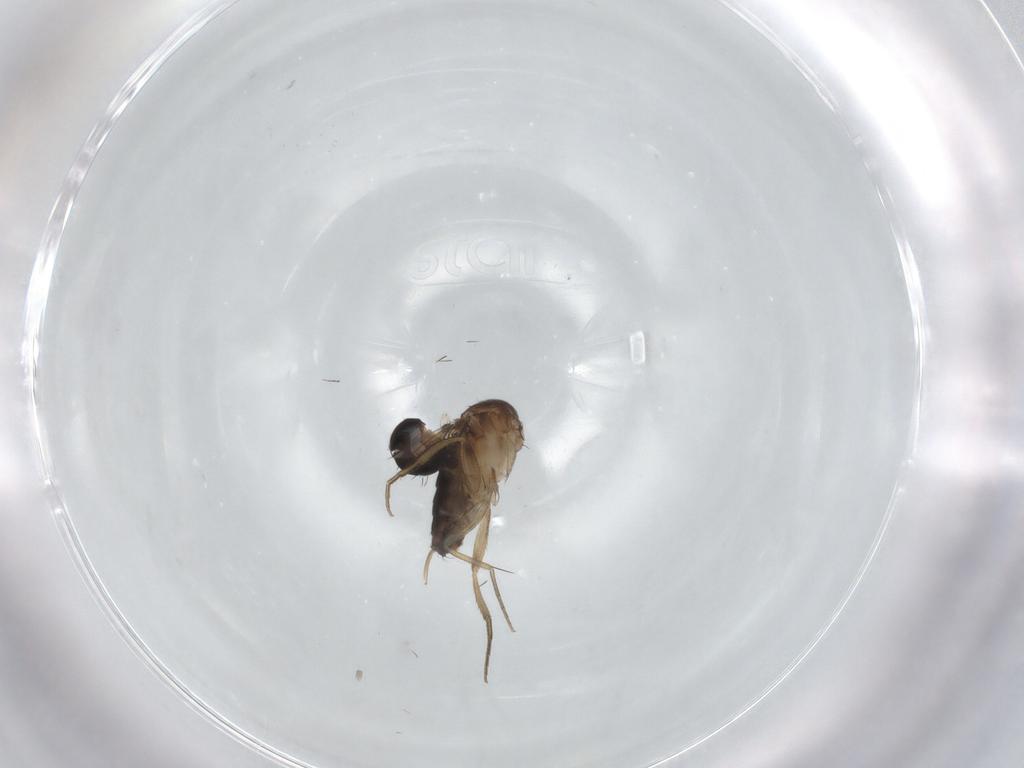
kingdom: Animalia
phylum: Arthropoda
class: Insecta
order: Diptera
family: Phoridae
